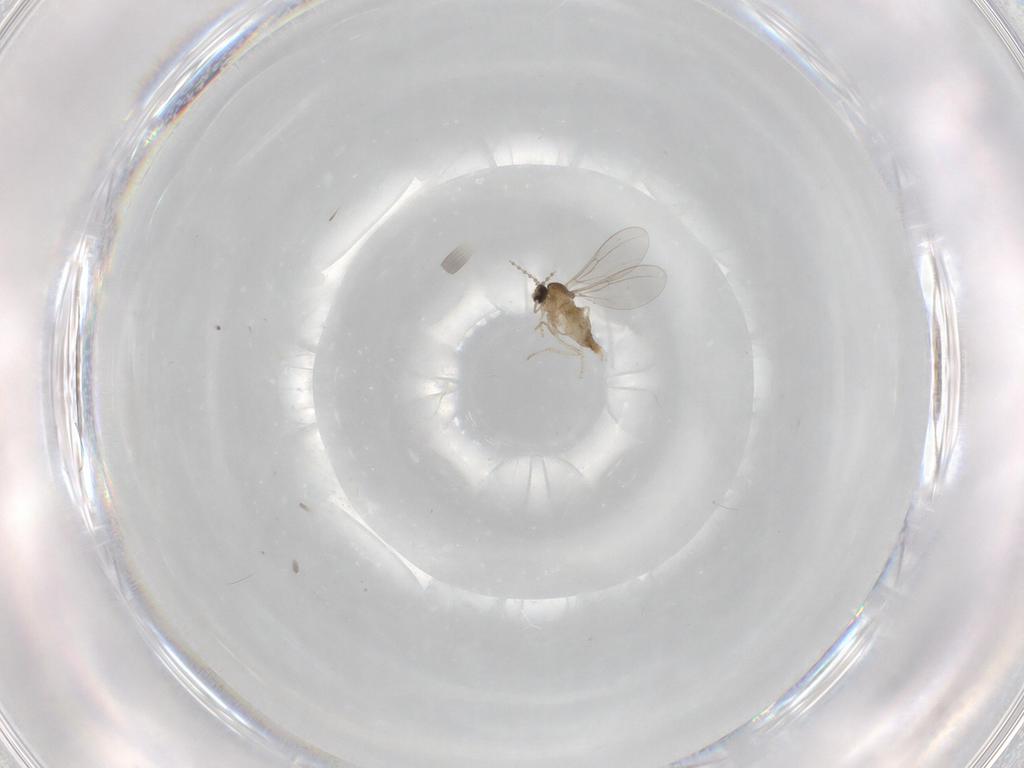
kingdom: Animalia
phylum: Arthropoda
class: Insecta
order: Diptera
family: Cecidomyiidae
